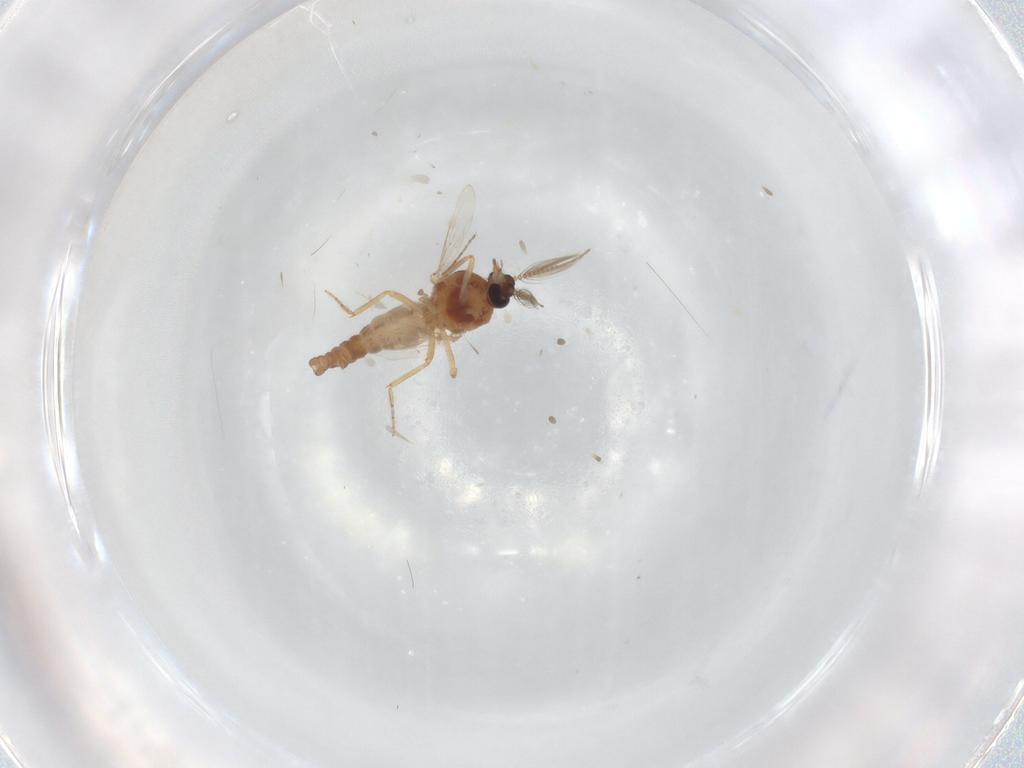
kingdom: Animalia
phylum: Arthropoda
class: Insecta
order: Diptera
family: Ceratopogonidae
